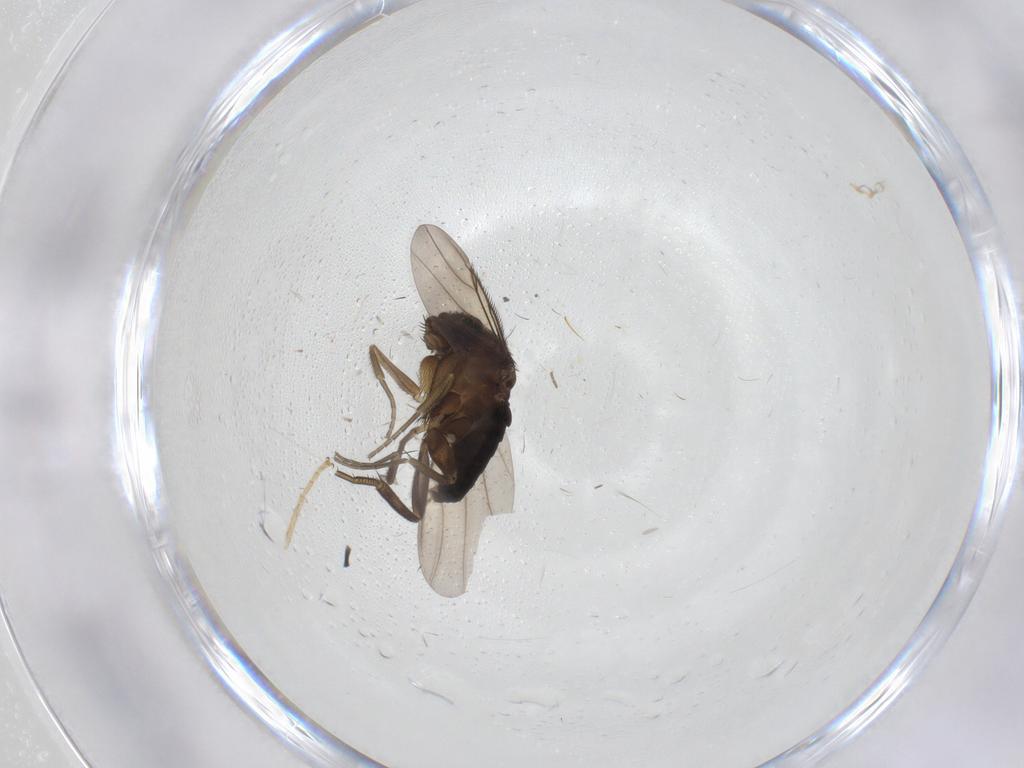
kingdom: Animalia
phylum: Arthropoda
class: Insecta
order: Diptera
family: Phoridae
